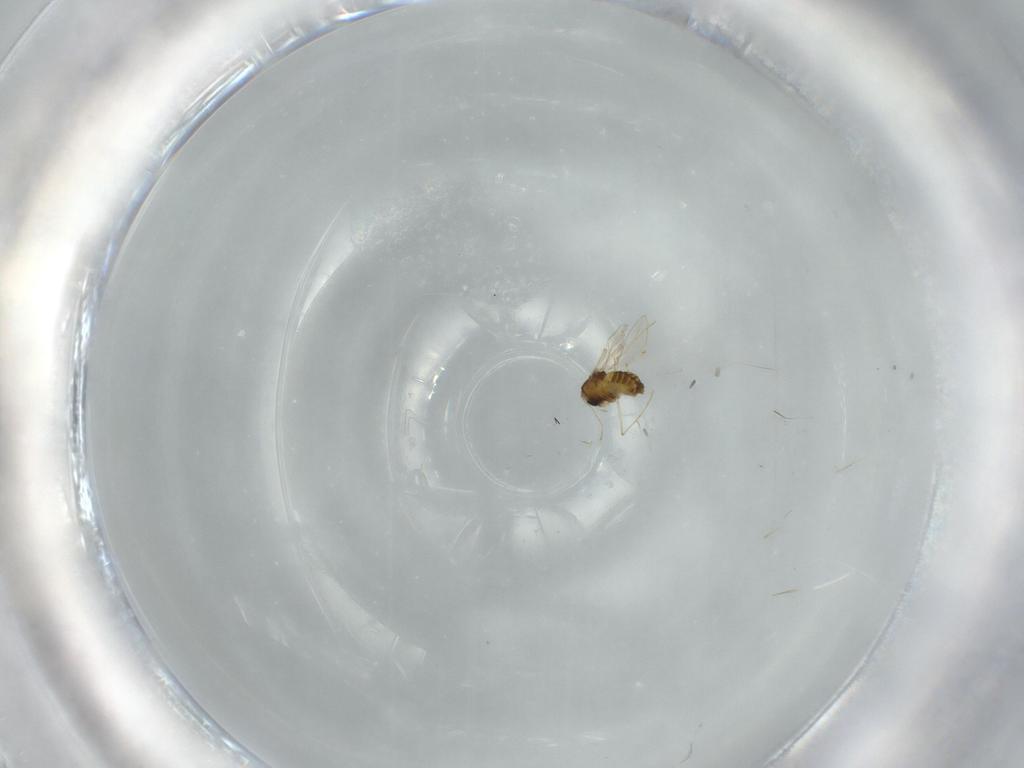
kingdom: Animalia
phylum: Arthropoda
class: Insecta
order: Diptera
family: Chironomidae
